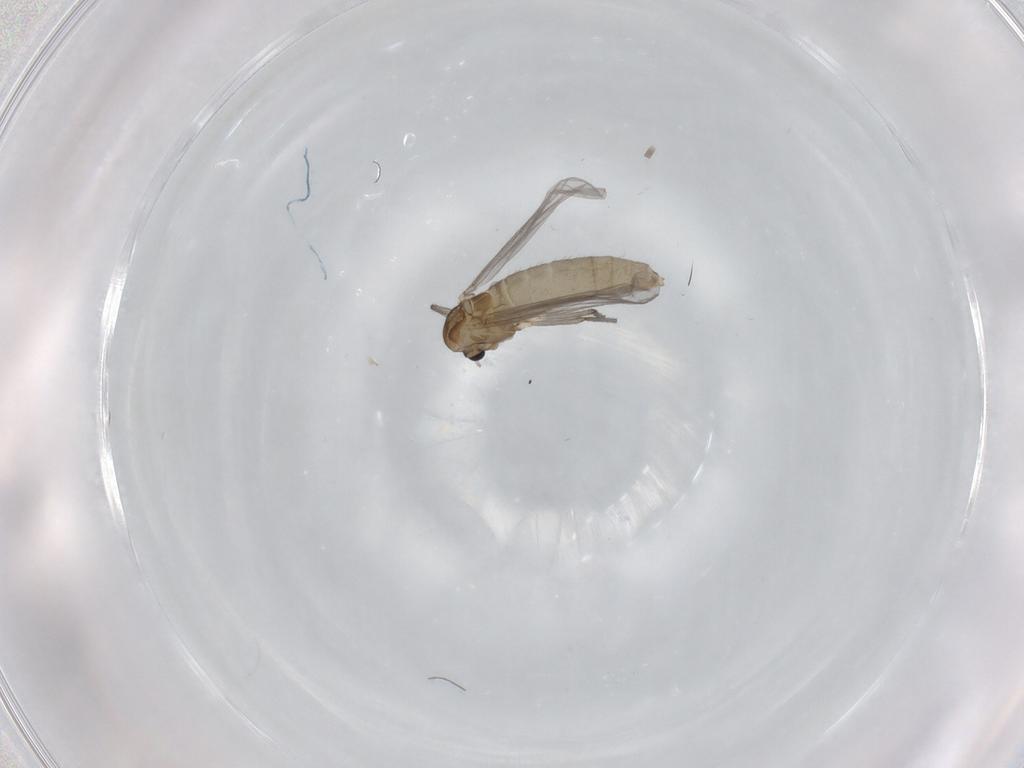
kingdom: Animalia
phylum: Arthropoda
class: Insecta
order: Diptera
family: Chironomidae
